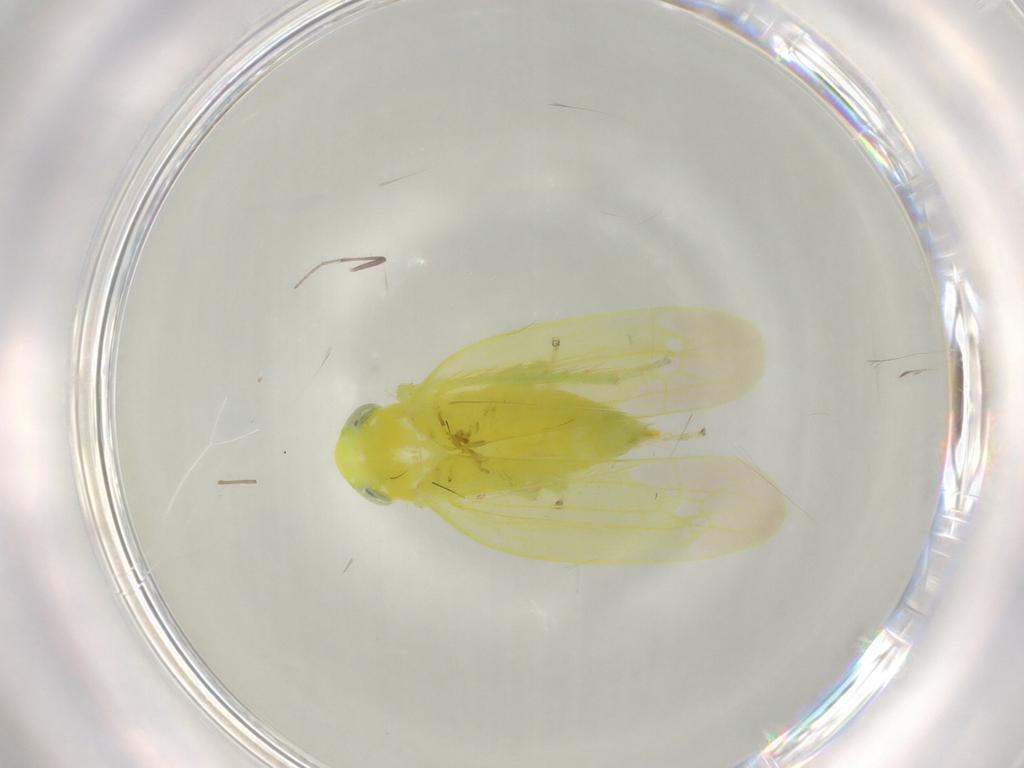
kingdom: Animalia
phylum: Arthropoda
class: Insecta
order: Hemiptera
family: Cicadellidae
